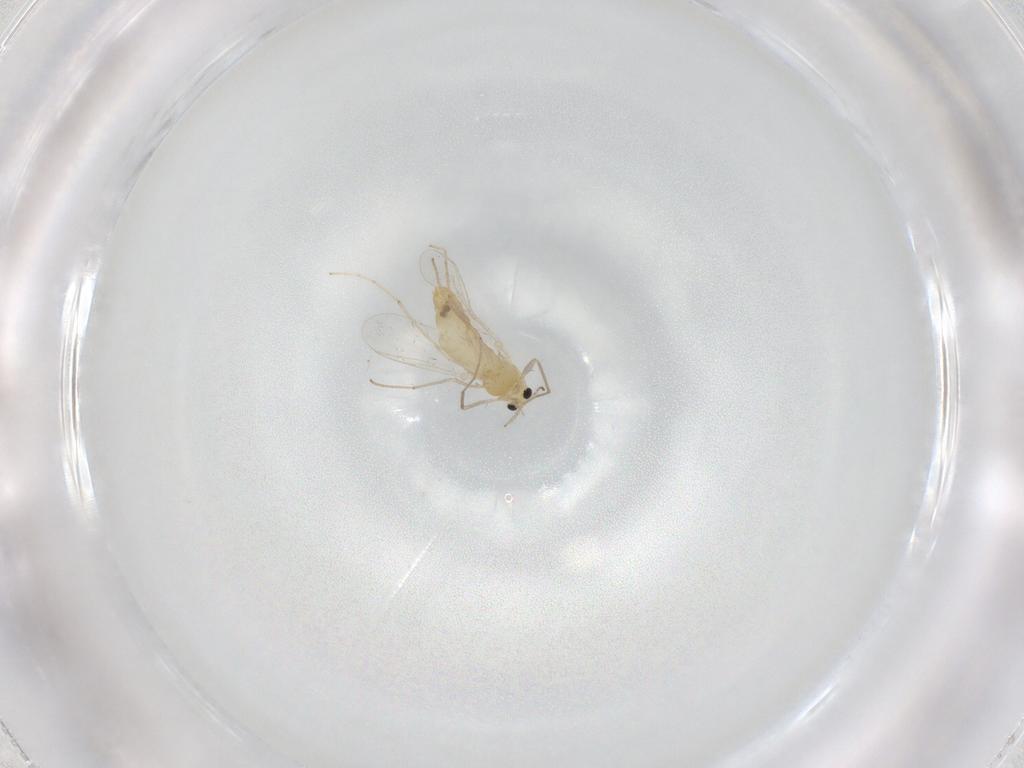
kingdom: Animalia
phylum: Arthropoda
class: Insecta
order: Diptera
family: Chironomidae
